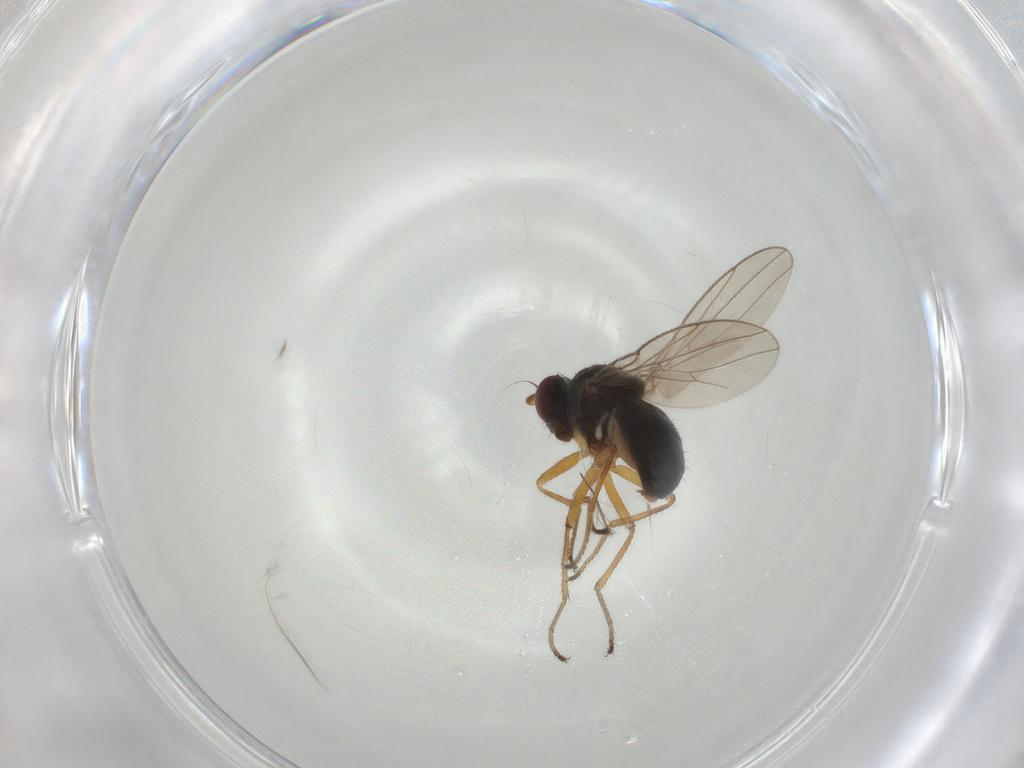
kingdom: Animalia
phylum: Arthropoda
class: Insecta
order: Diptera
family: Ephydridae
